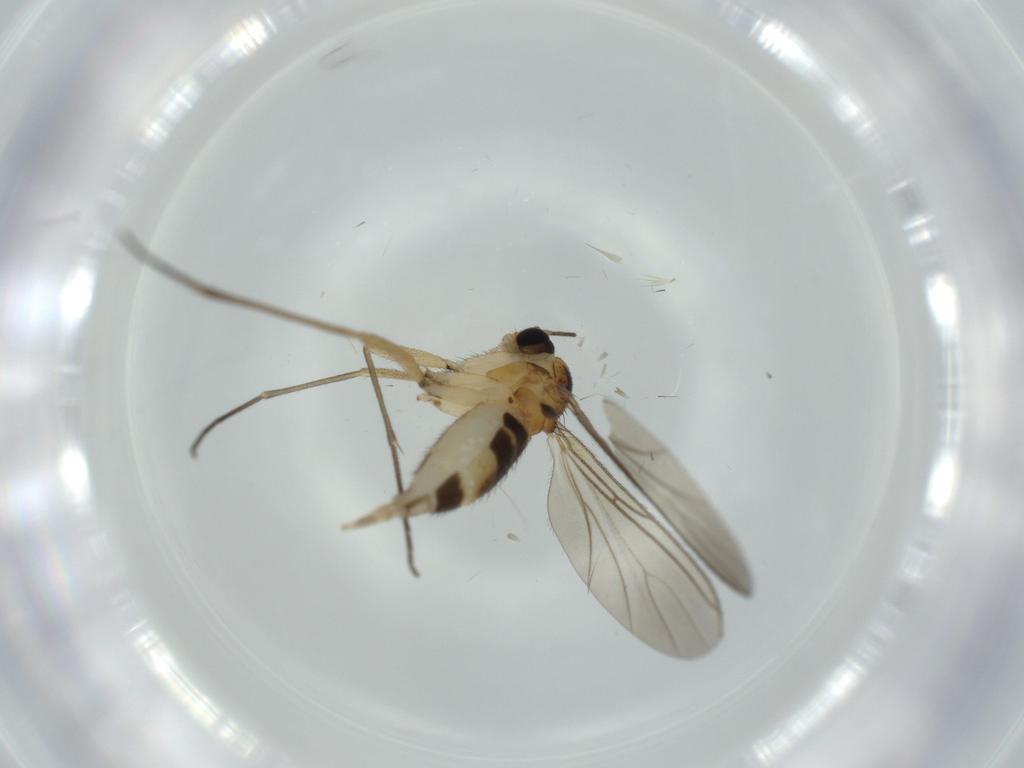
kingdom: Animalia
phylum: Arthropoda
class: Insecta
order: Diptera
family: Sciaridae
